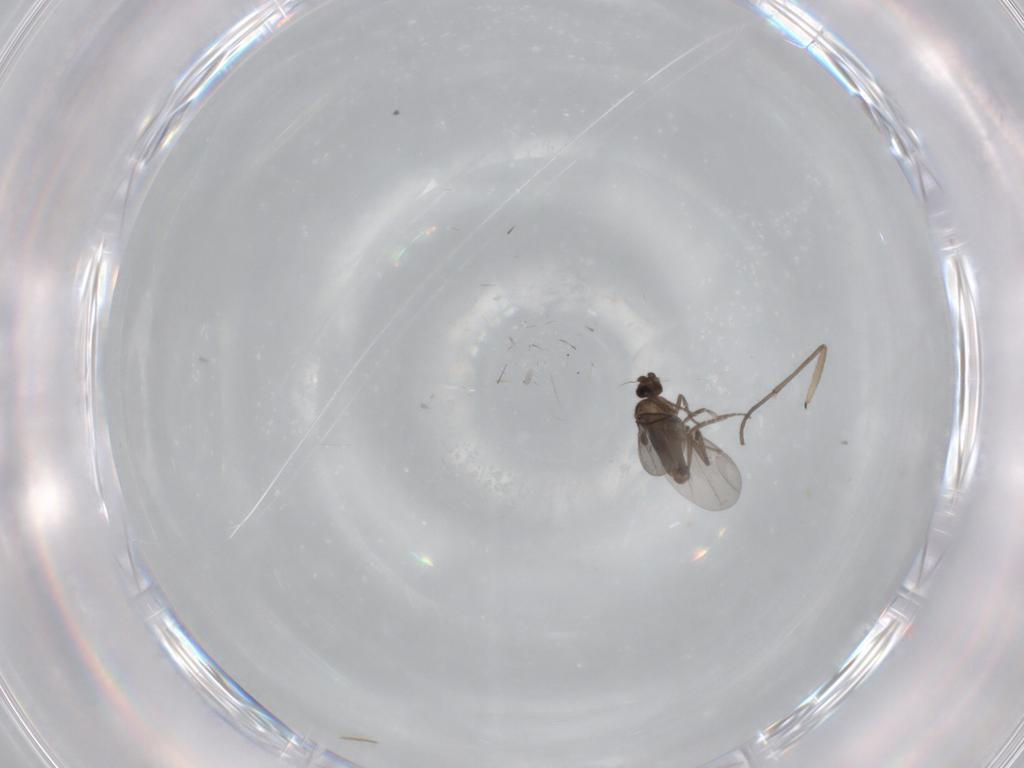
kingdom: Animalia
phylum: Arthropoda
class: Insecta
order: Diptera
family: Phoridae
